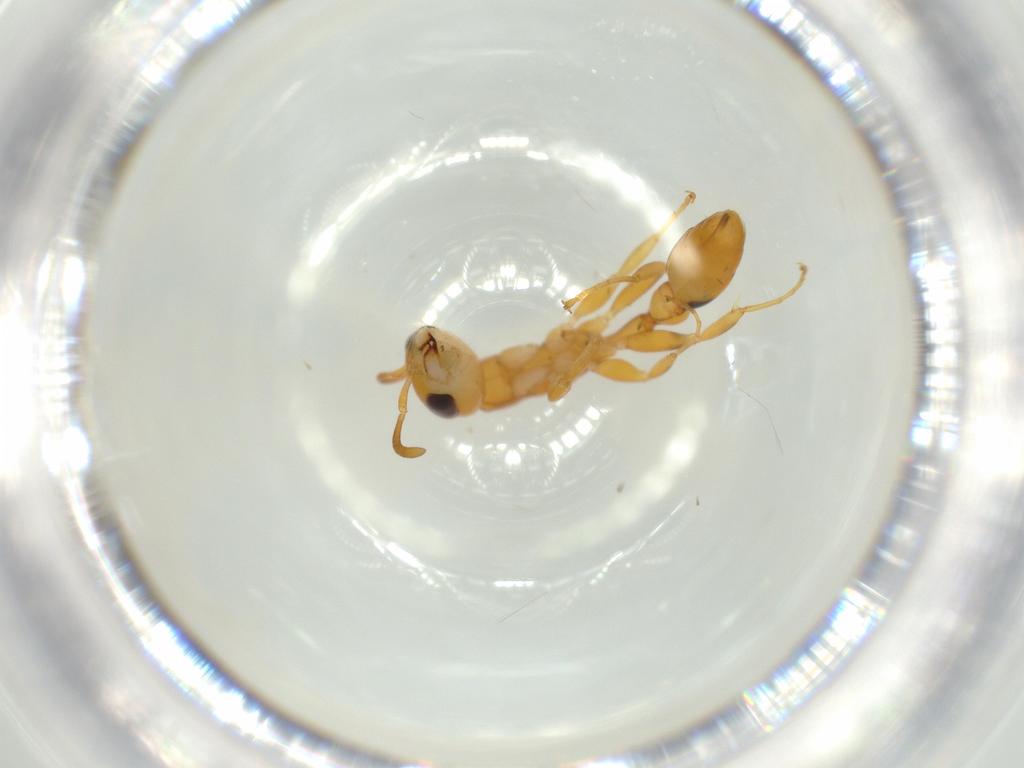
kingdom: Animalia
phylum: Arthropoda
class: Insecta
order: Hymenoptera
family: Formicidae
